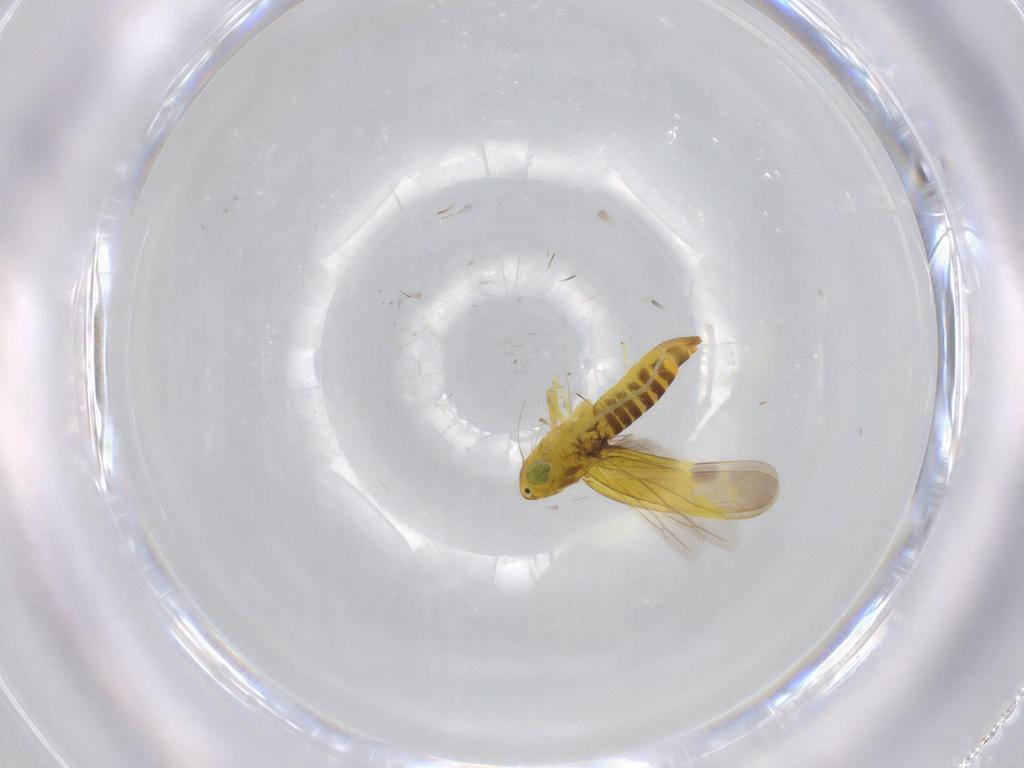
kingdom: Animalia
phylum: Arthropoda
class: Insecta
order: Hemiptera
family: Cicadellidae
